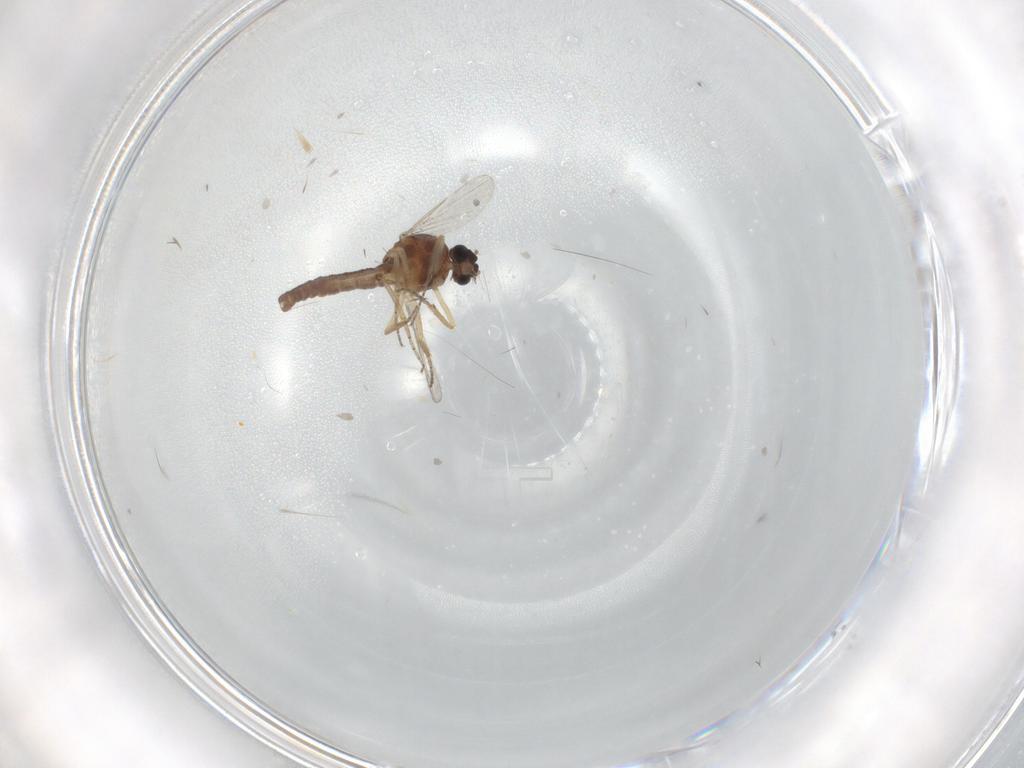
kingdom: Animalia
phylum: Arthropoda
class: Insecta
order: Diptera
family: Ceratopogonidae
